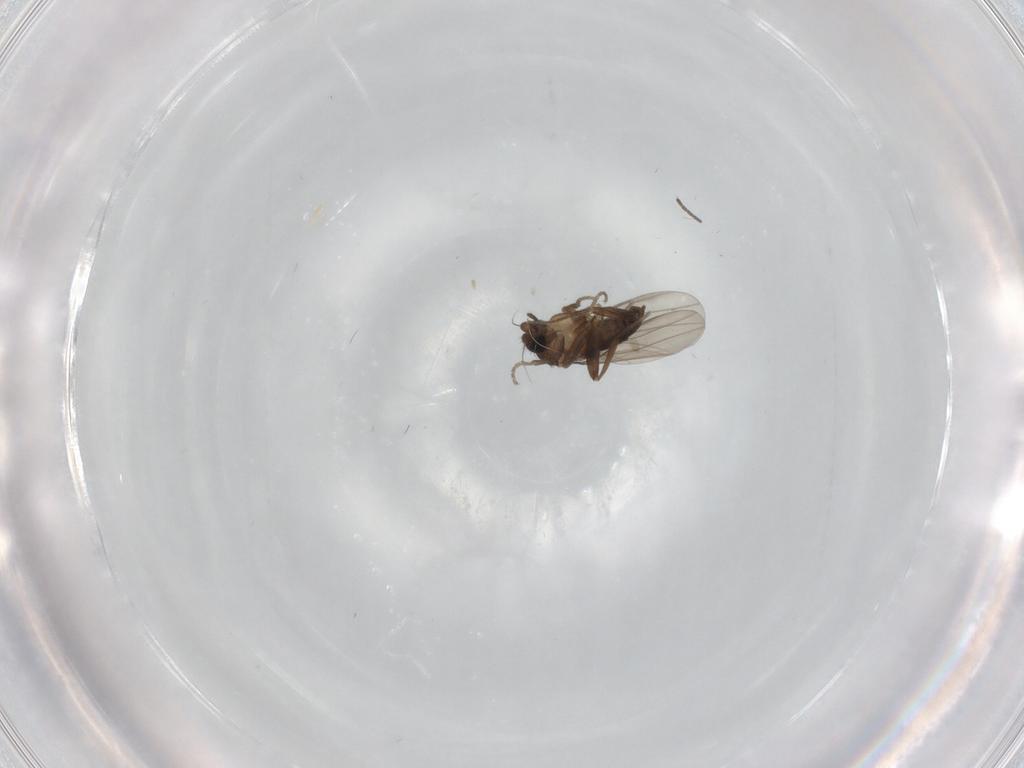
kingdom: Animalia
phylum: Arthropoda
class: Insecta
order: Diptera
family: Phoridae
